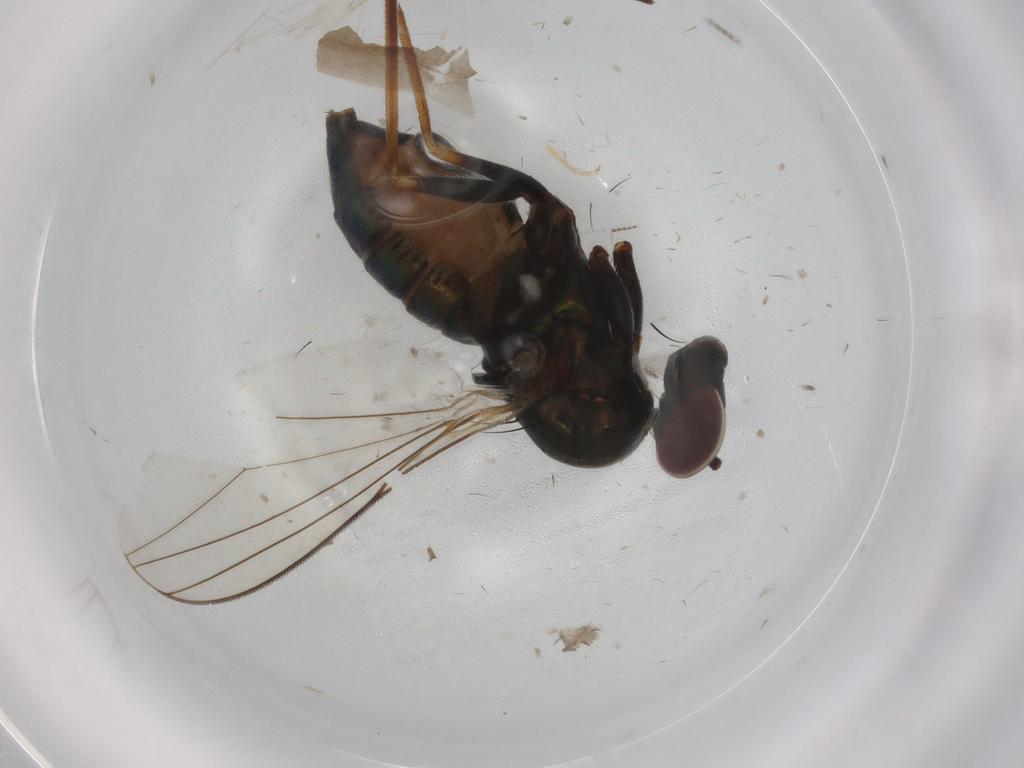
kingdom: Animalia
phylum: Arthropoda
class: Insecta
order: Diptera
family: Dolichopodidae
